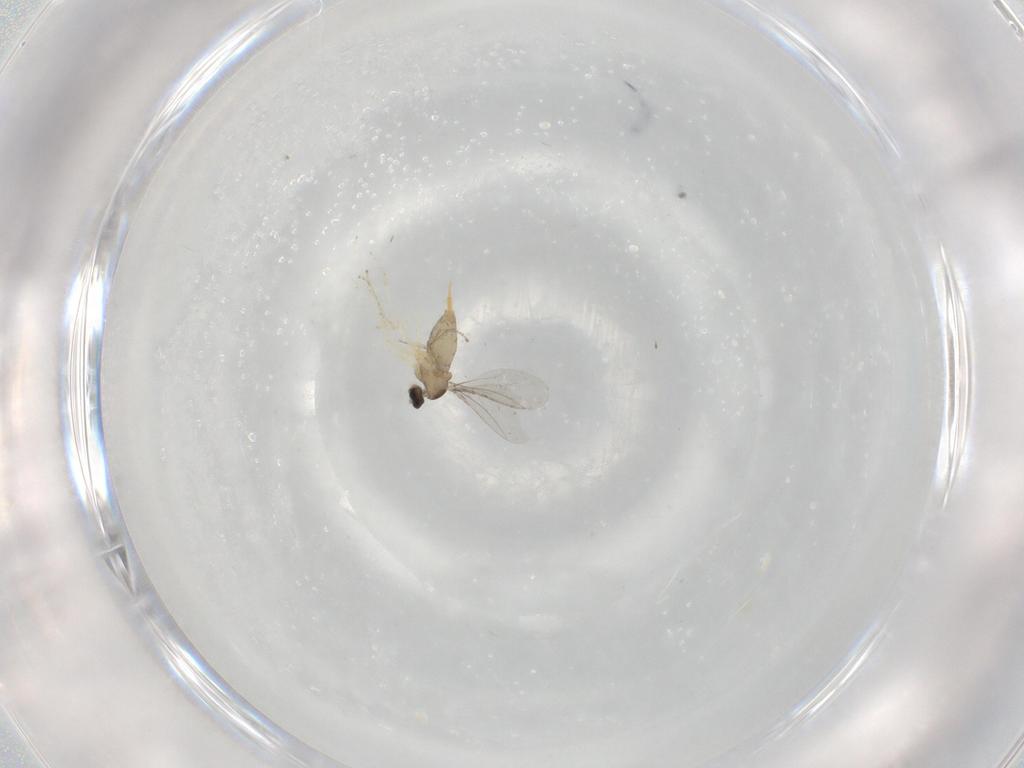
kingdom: Animalia
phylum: Arthropoda
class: Insecta
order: Diptera
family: Cecidomyiidae
